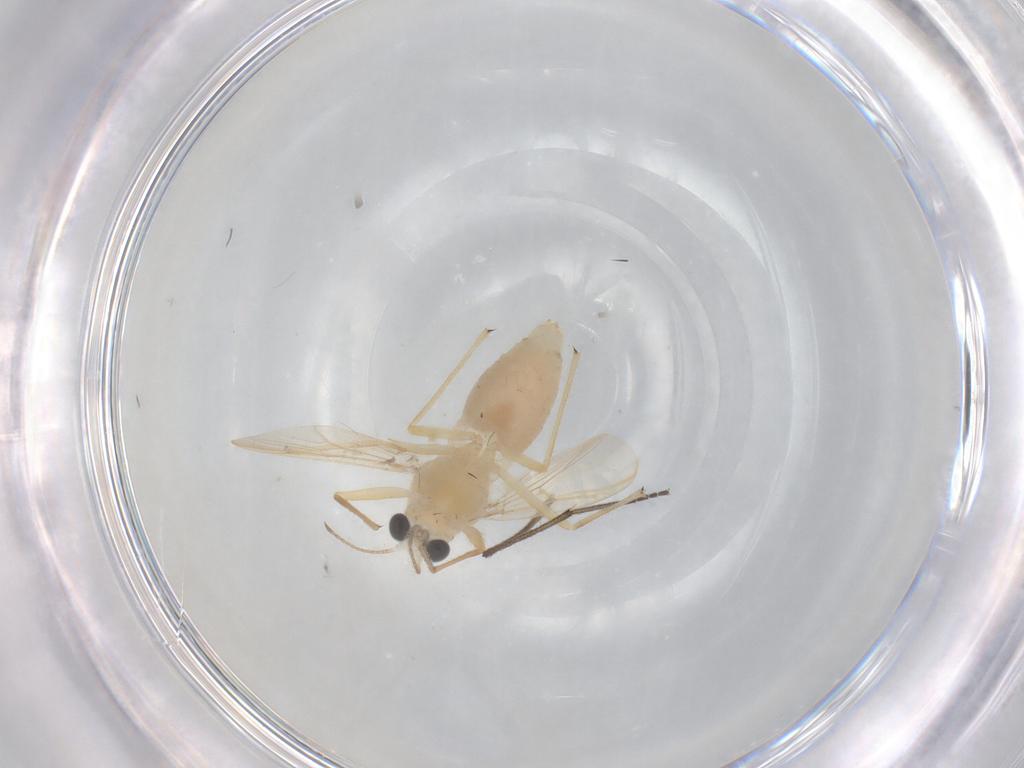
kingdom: Animalia
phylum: Arthropoda
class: Insecta
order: Diptera
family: Chironomidae
